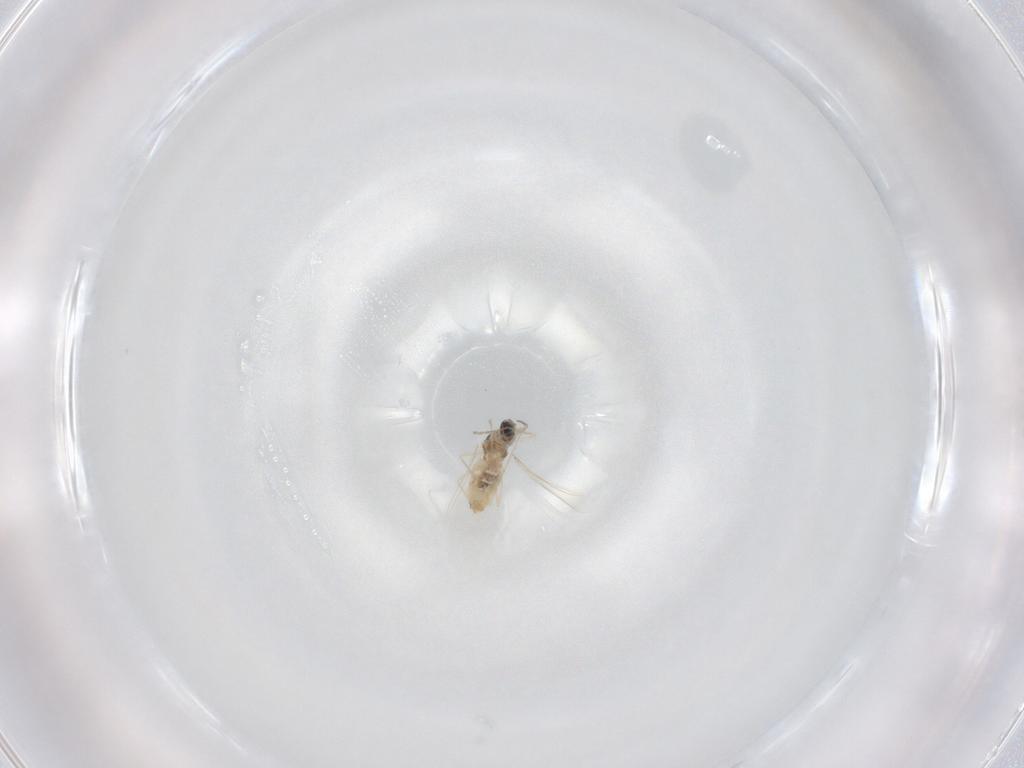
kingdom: Animalia
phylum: Arthropoda
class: Insecta
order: Diptera
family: Cecidomyiidae
